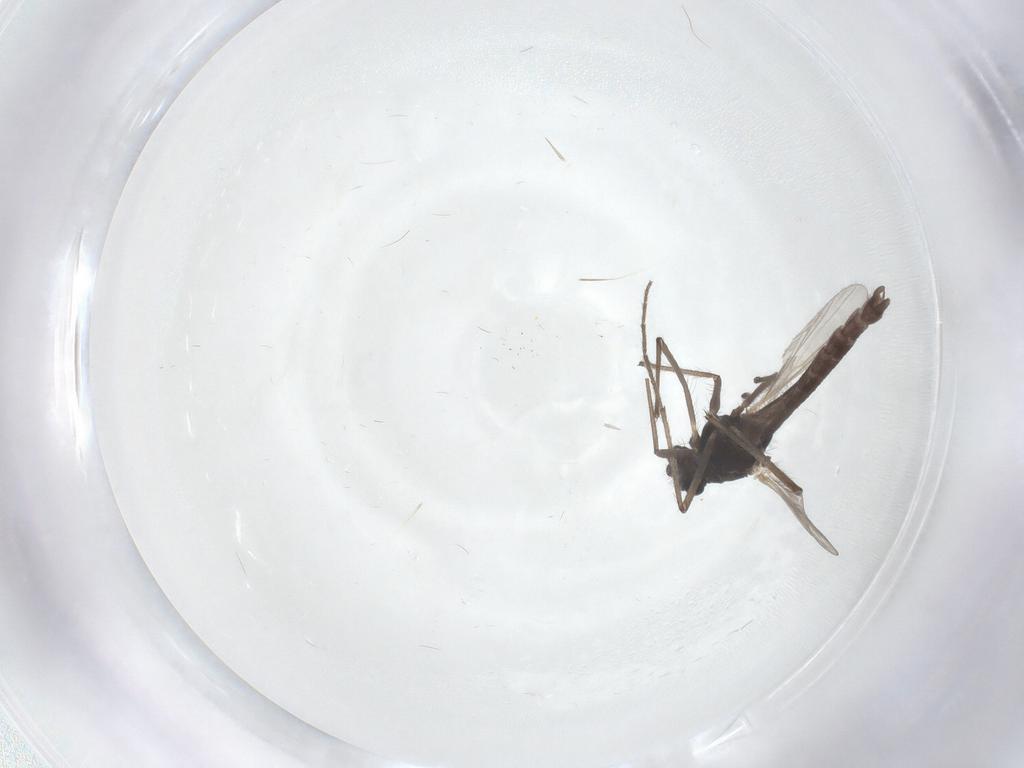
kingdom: Animalia
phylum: Arthropoda
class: Insecta
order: Diptera
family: Chironomidae
